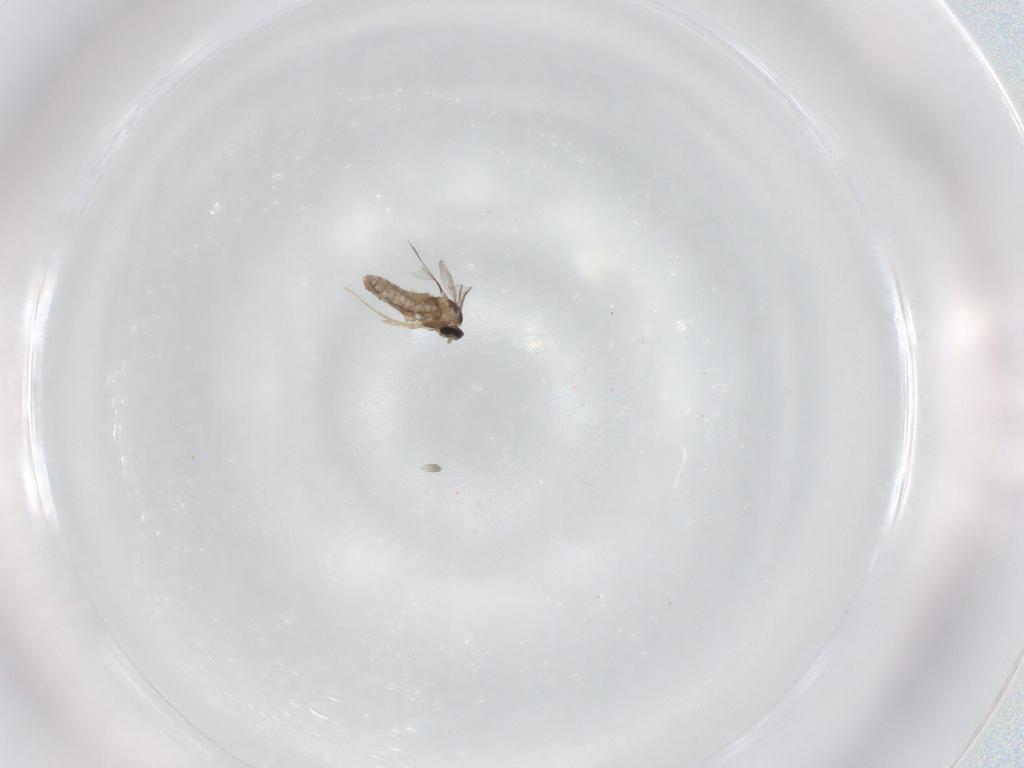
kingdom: Animalia
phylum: Arthropoda
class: Insecta
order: Diptera
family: Cecidomyiidae
